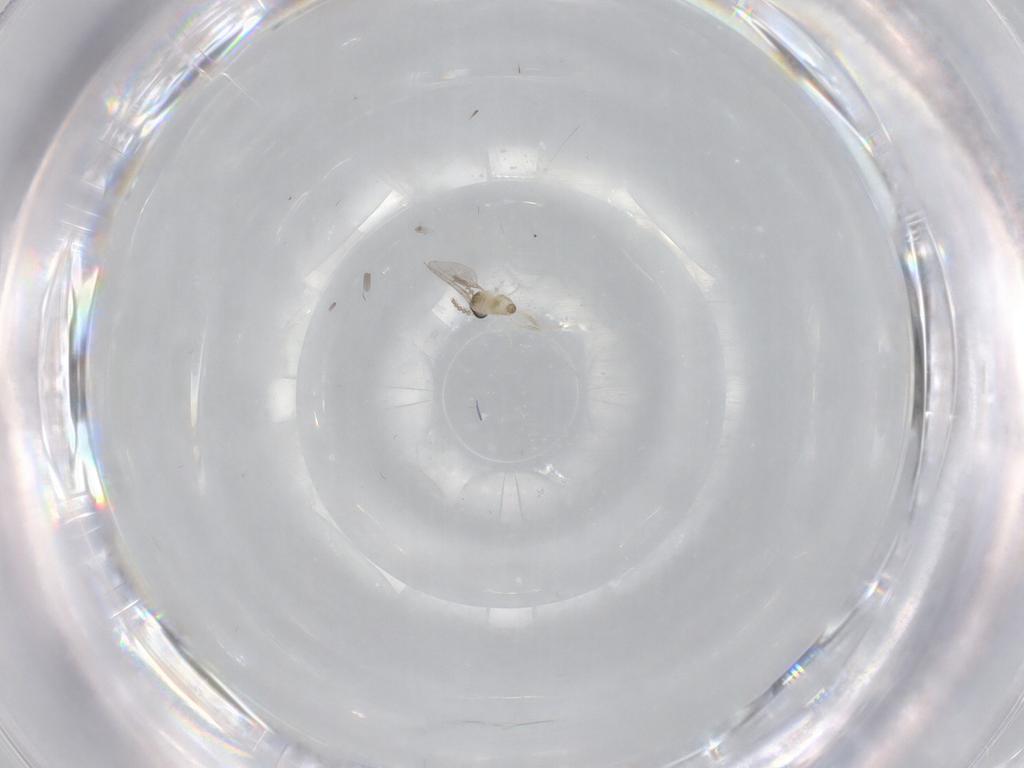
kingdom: Animalia
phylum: Arthropoda
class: Insecta
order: Diptera
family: Cecidomyiidae
